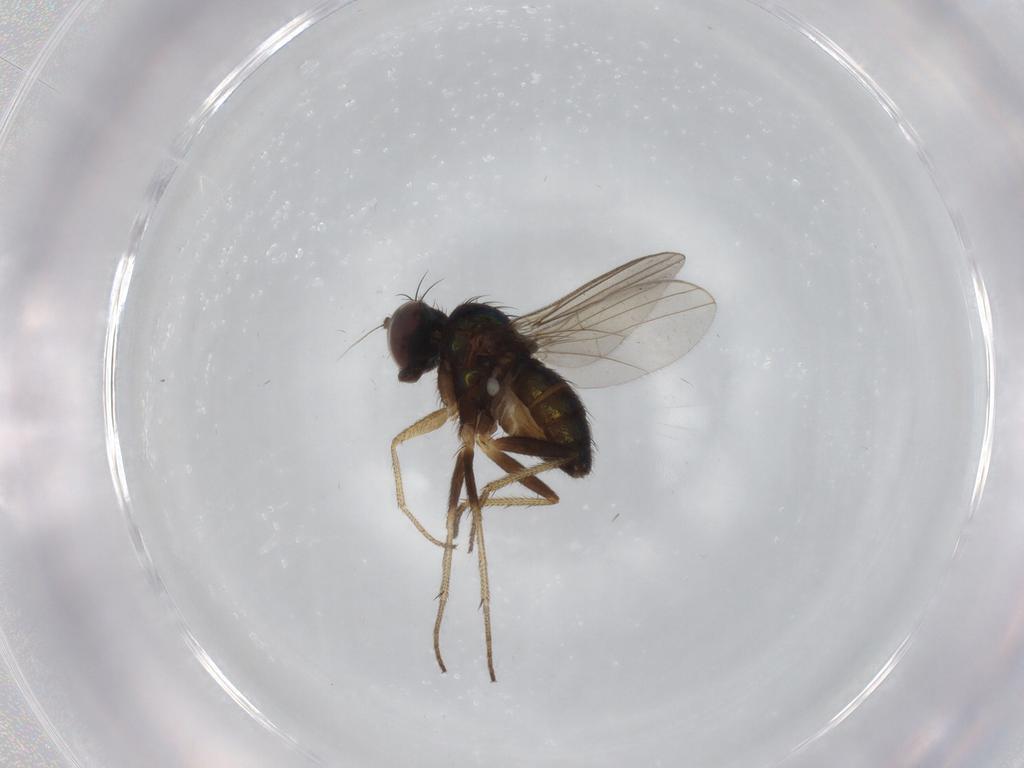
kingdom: Animalia
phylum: Arthropoda
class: Insecta
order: Diptera
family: Dolichopodidae
